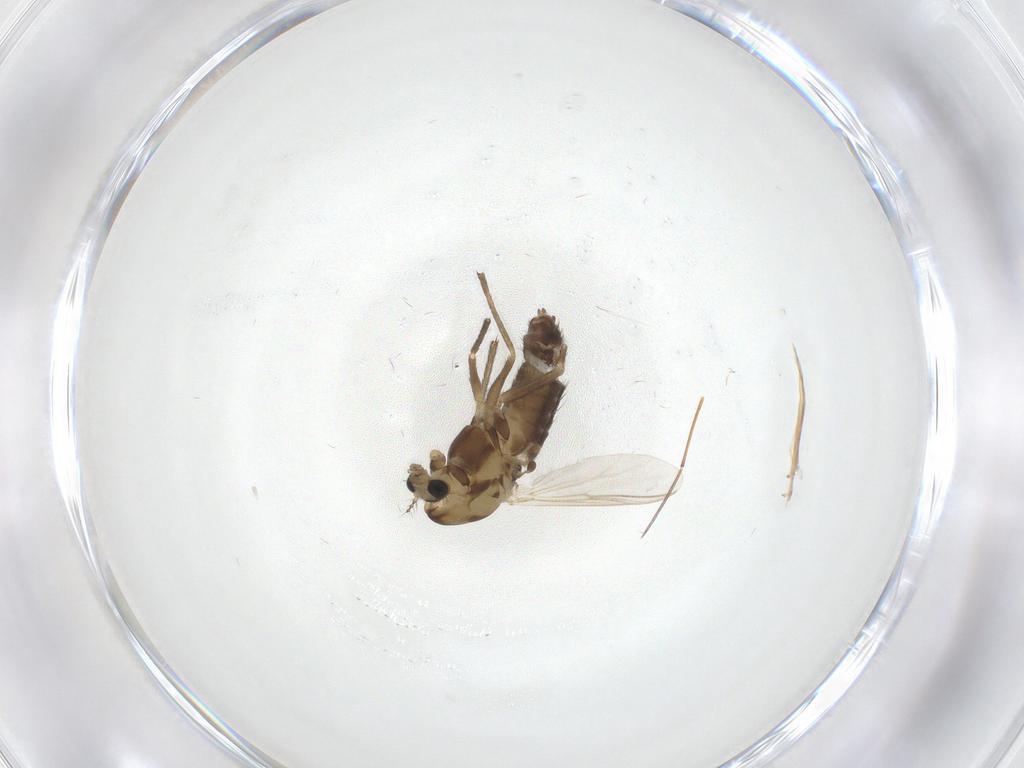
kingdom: Animalia
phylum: Arthropoda
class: Insecta
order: Diptera
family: Chironomidae
